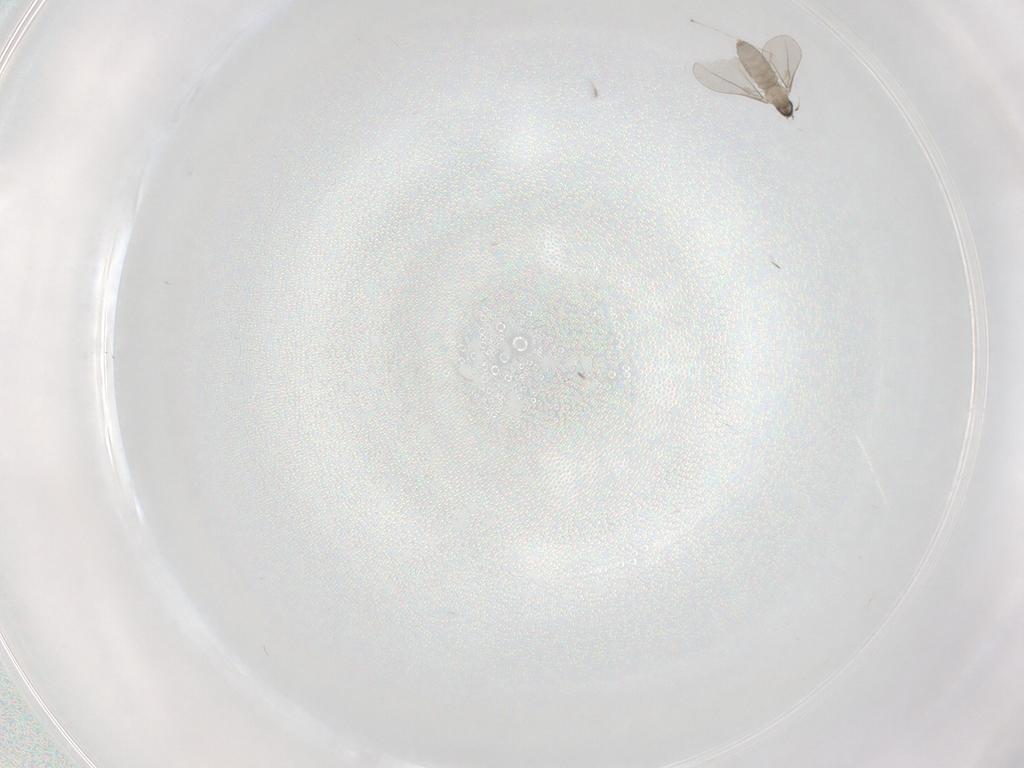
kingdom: Animalia
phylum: Arthropoda
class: Insecta
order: Diptera
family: Cecidomyiidae
